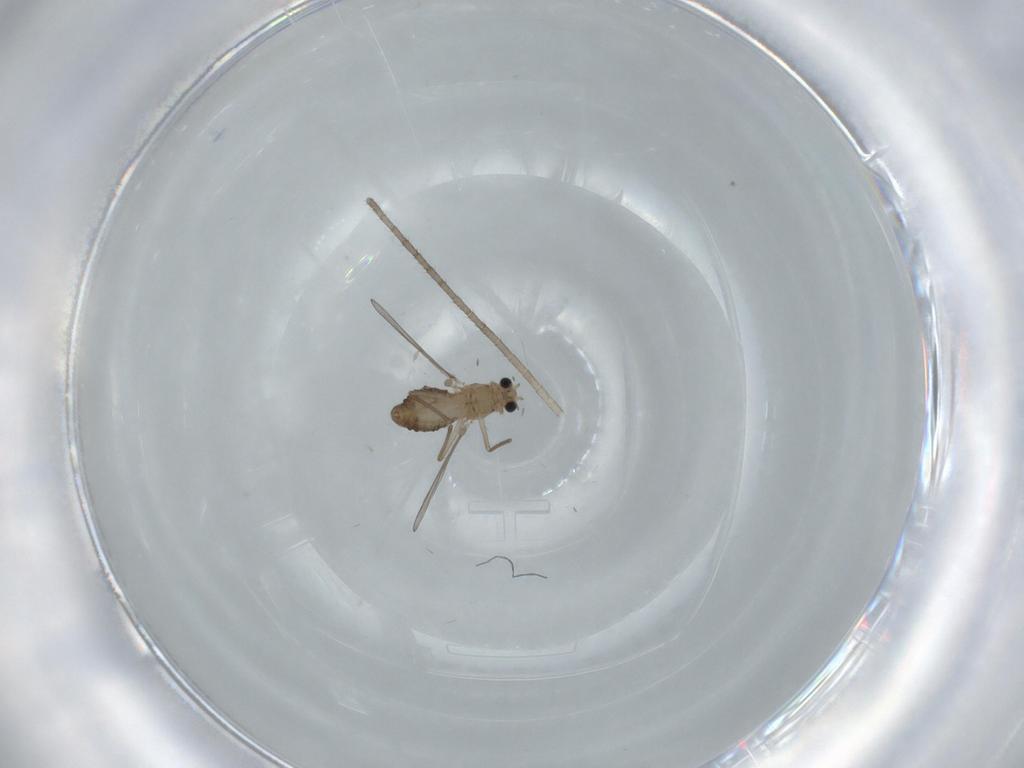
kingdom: Animalia
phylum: Arthropoda
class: Insecta
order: Diptera
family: Chironomidae
